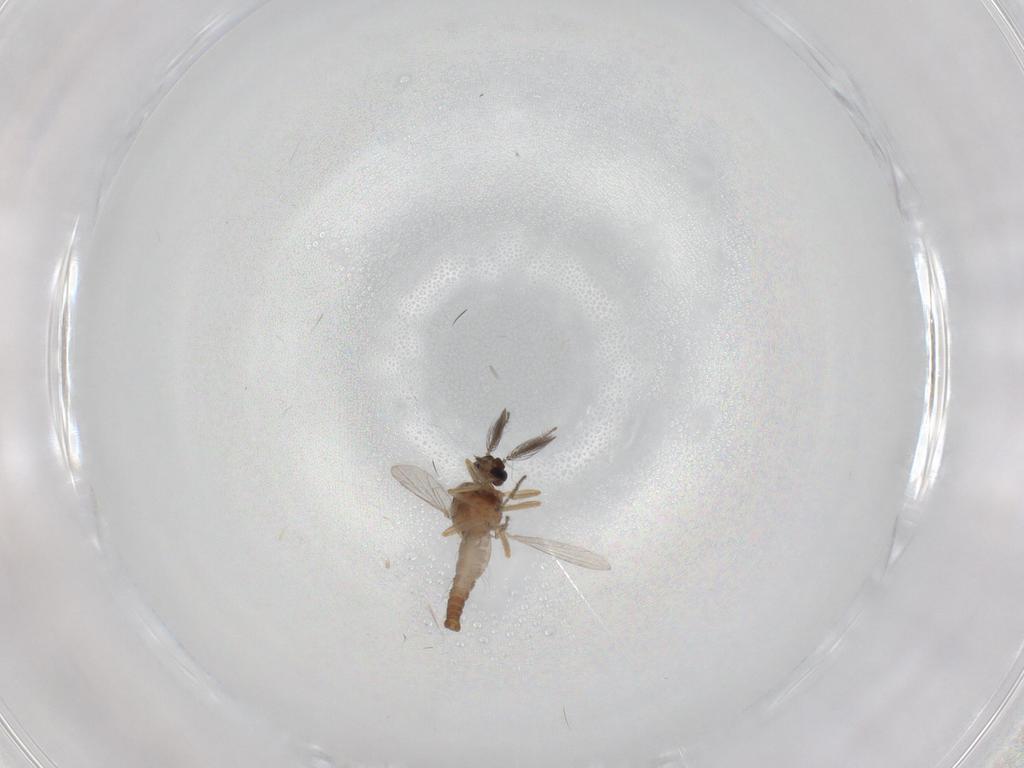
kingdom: Animalia
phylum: Arthropoda
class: Insecta
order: Diptera
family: Ceratopogonidae
